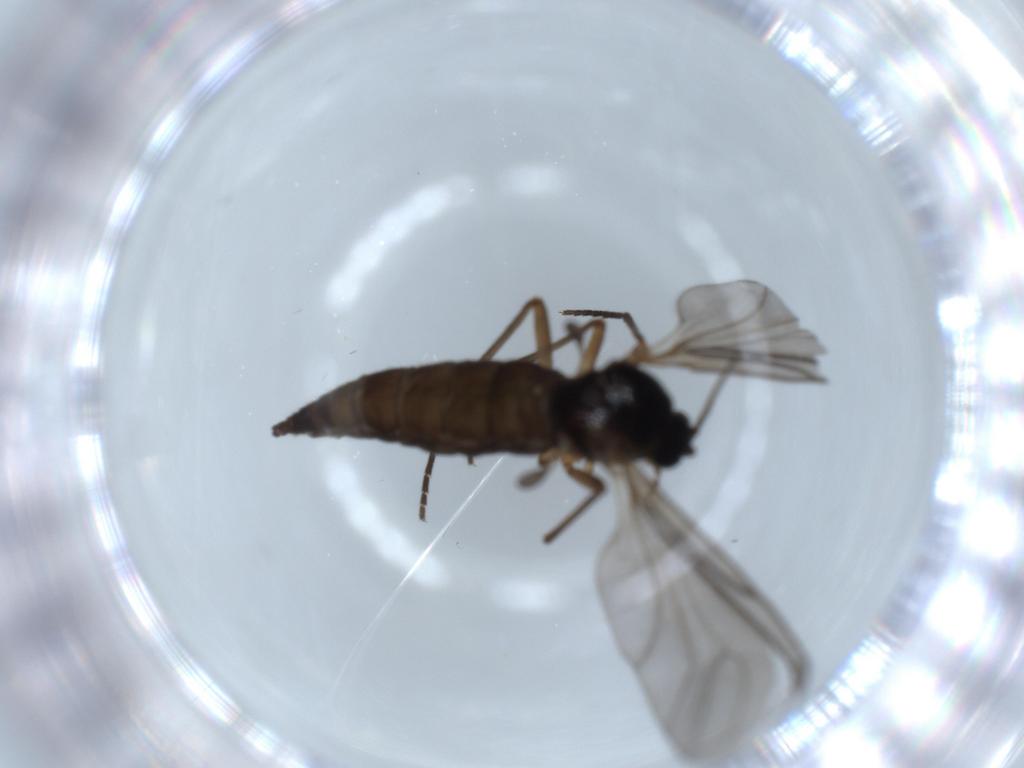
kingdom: Animalia
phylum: Arthropoda
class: Insecta
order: Diptera
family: Sciaridae
